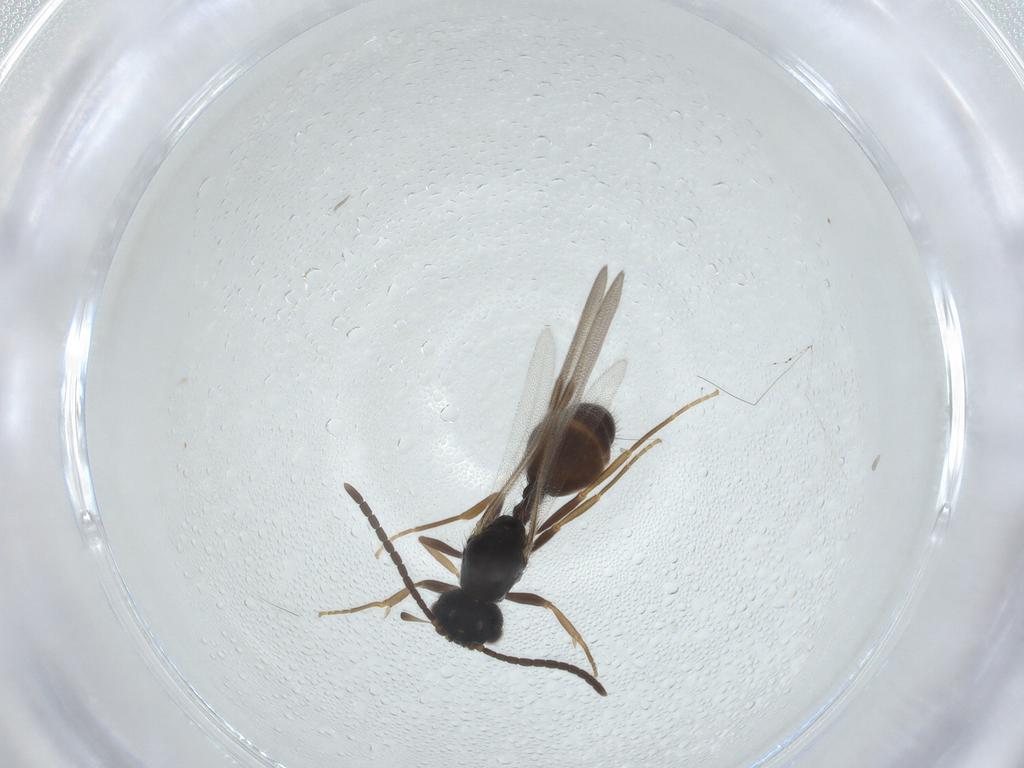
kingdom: Animalia
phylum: Arthropoda
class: Insecta
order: Hymenoptera
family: Formicidae
